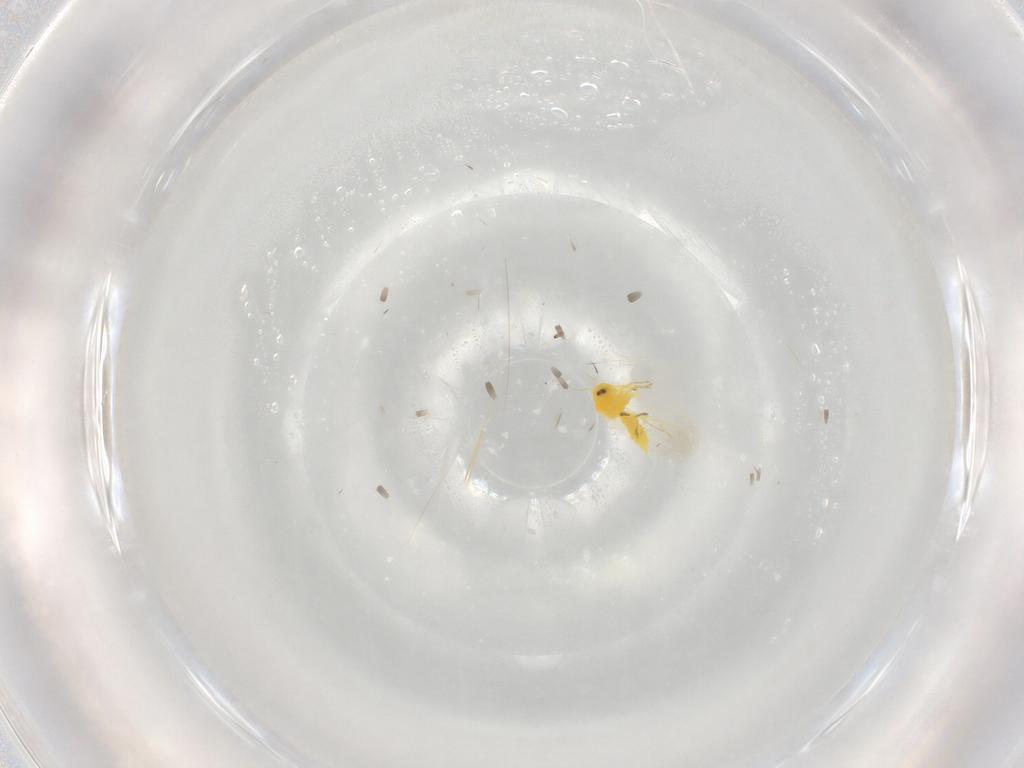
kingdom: Animalia
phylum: Arthropoda
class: Insecta
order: Hemiptera
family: Cicadellidae
